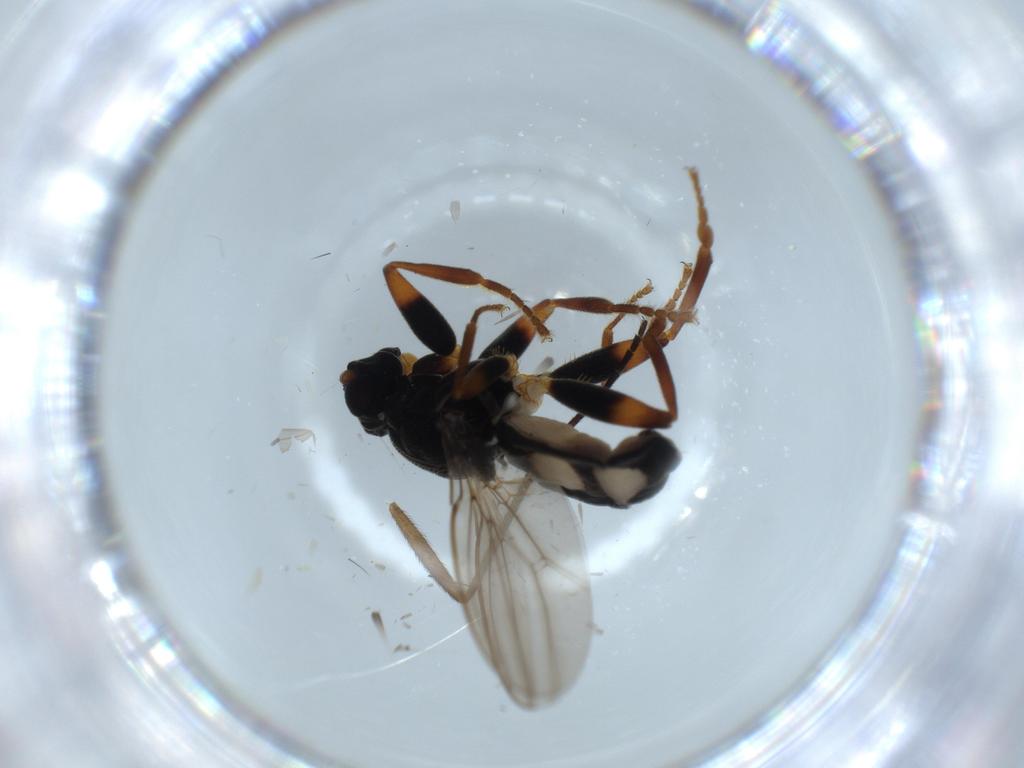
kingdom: Animalia
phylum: Arthropoda
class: Insecta
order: Diptera
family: Sphaeroceridae
